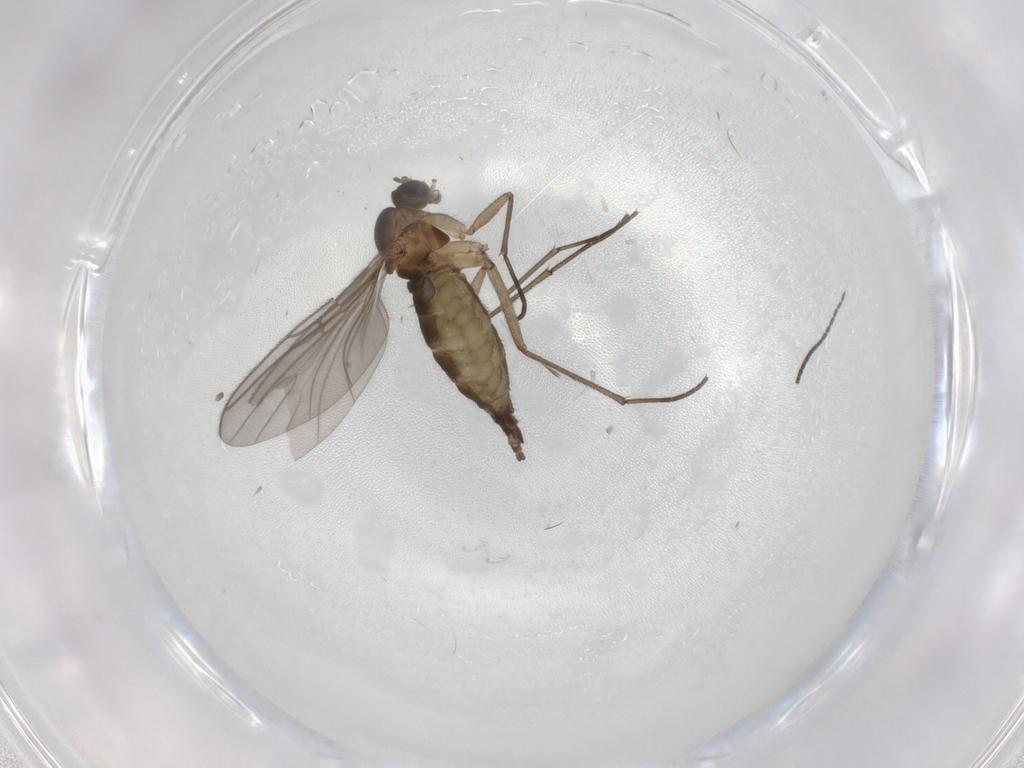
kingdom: Animalia
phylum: Arthropoda
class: Insecta
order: Diptera
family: Sciaridae
